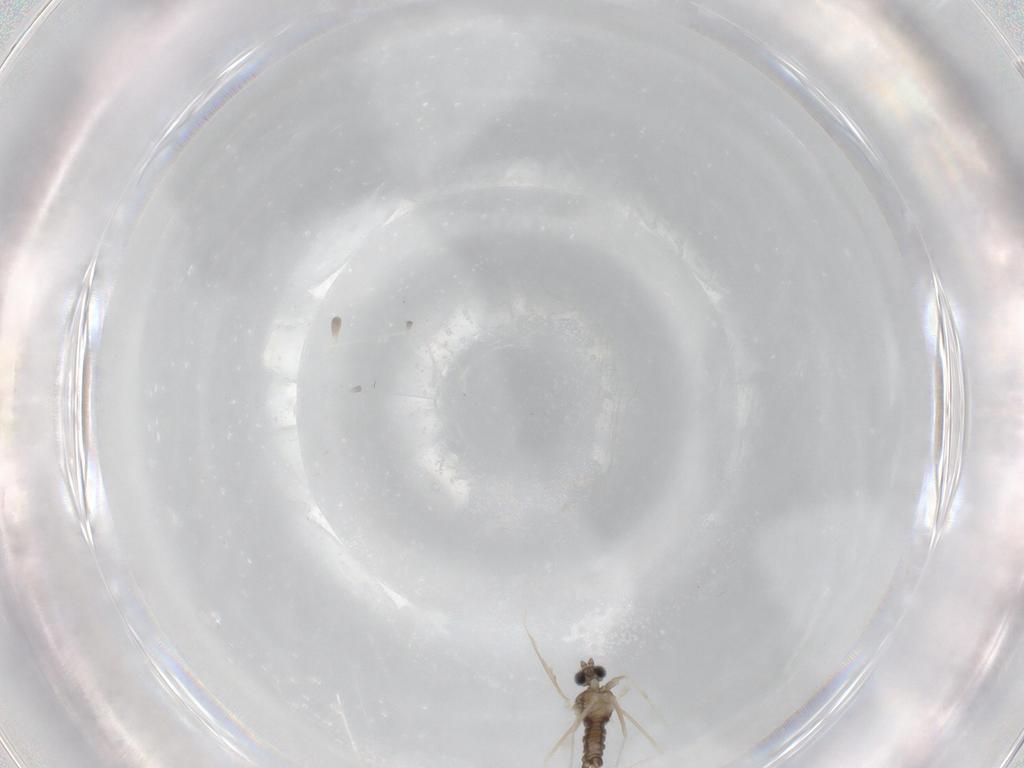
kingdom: Animalia
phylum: Arthropoda
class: Insecta
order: Diptera
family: Cecidomyiidae
